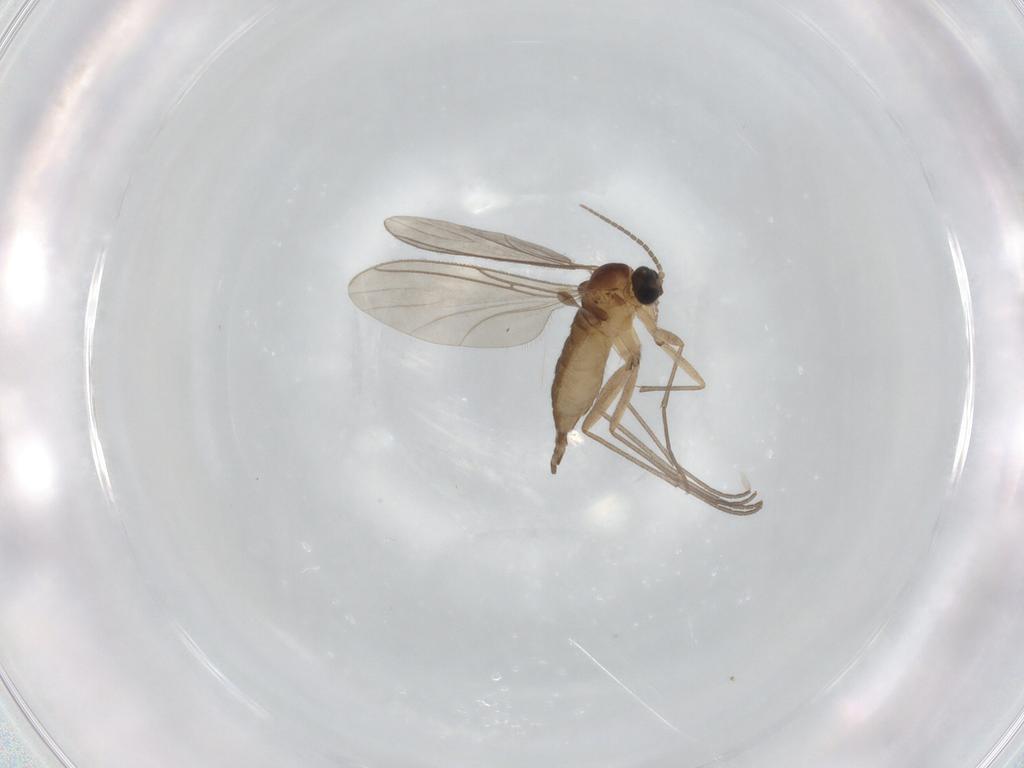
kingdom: Animalia
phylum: Arthropoda
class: Insecta
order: Diptera
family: Sciaridae
